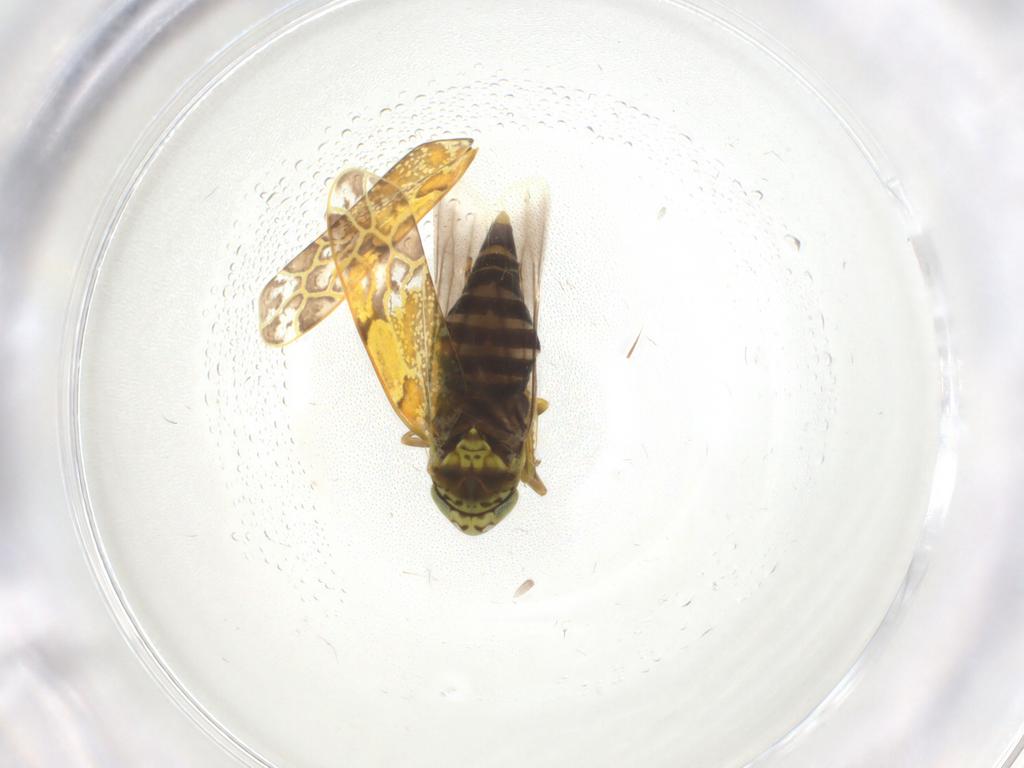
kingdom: Animalia
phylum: Arthropoda
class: Insecta
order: Hemiptera
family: Cicadellidae
